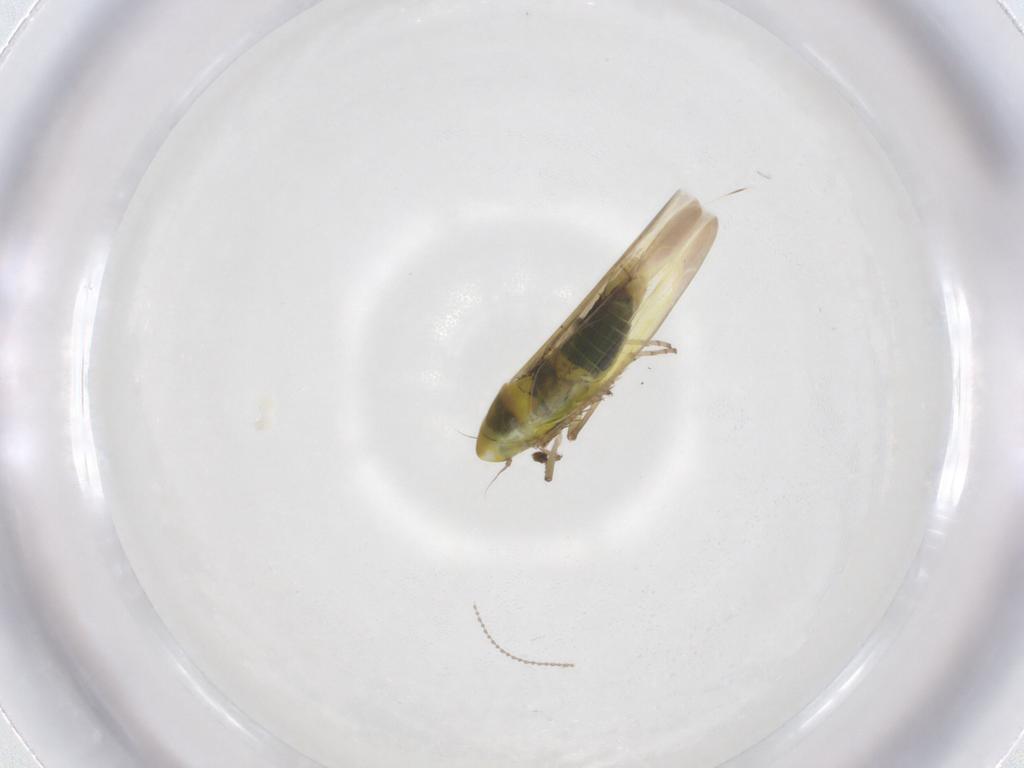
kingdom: Animalia
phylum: Arthropoda
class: Insecta
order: Hemiptera
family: Cicadellidae
